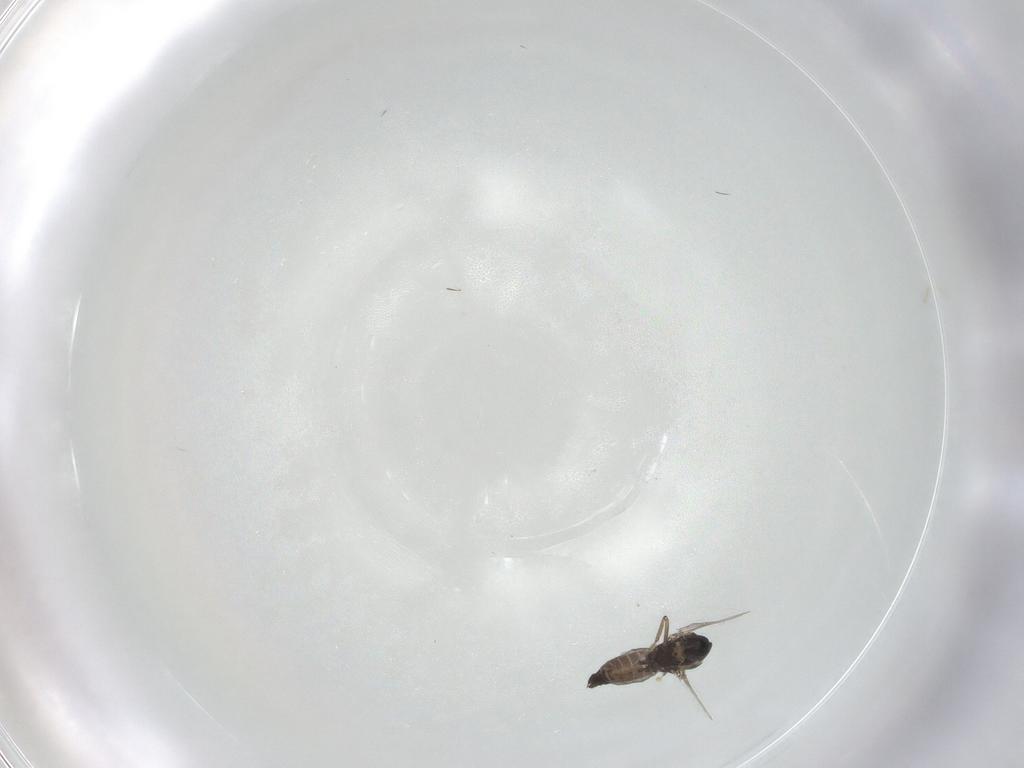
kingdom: Animalia
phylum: Arthropoda
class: Insecta
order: Diptera
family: Ceratopogonidae
